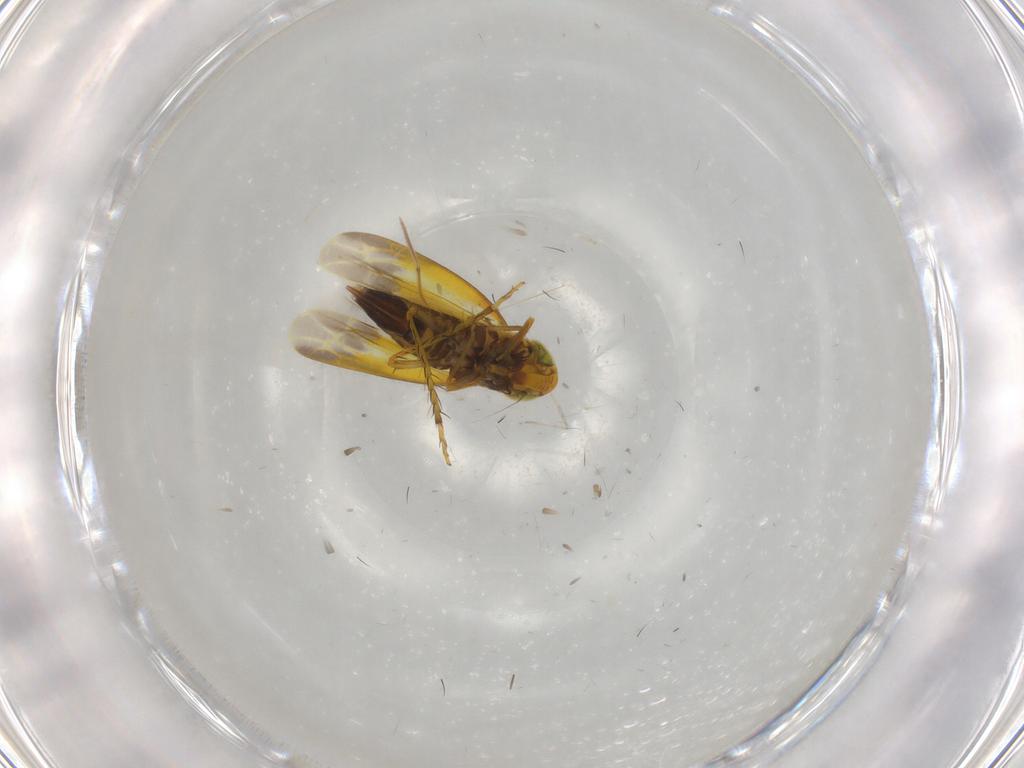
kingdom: Animalia
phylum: Arthropoda
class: Insecta
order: Hemiptera
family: Cicadellidae
